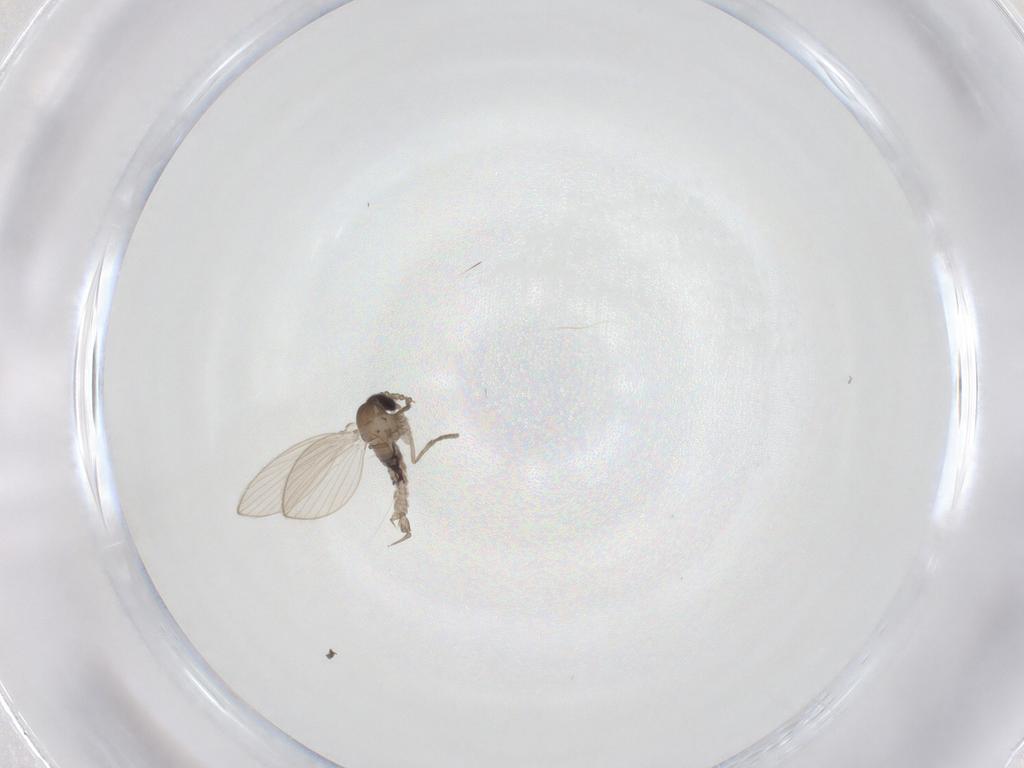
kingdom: Animalia
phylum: Arthropoda
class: Insecta
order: Diptera
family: Psychodidae
